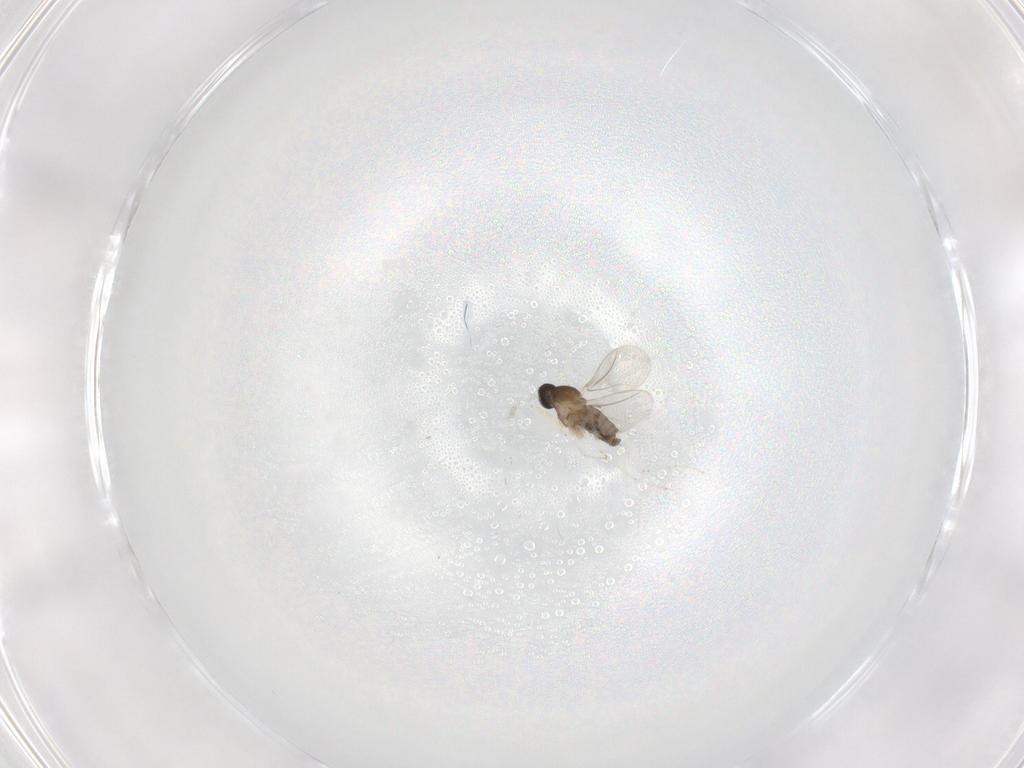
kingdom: Animalia
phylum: Arthropoda
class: Insecta
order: Diptera
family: Cecidomyiidae
